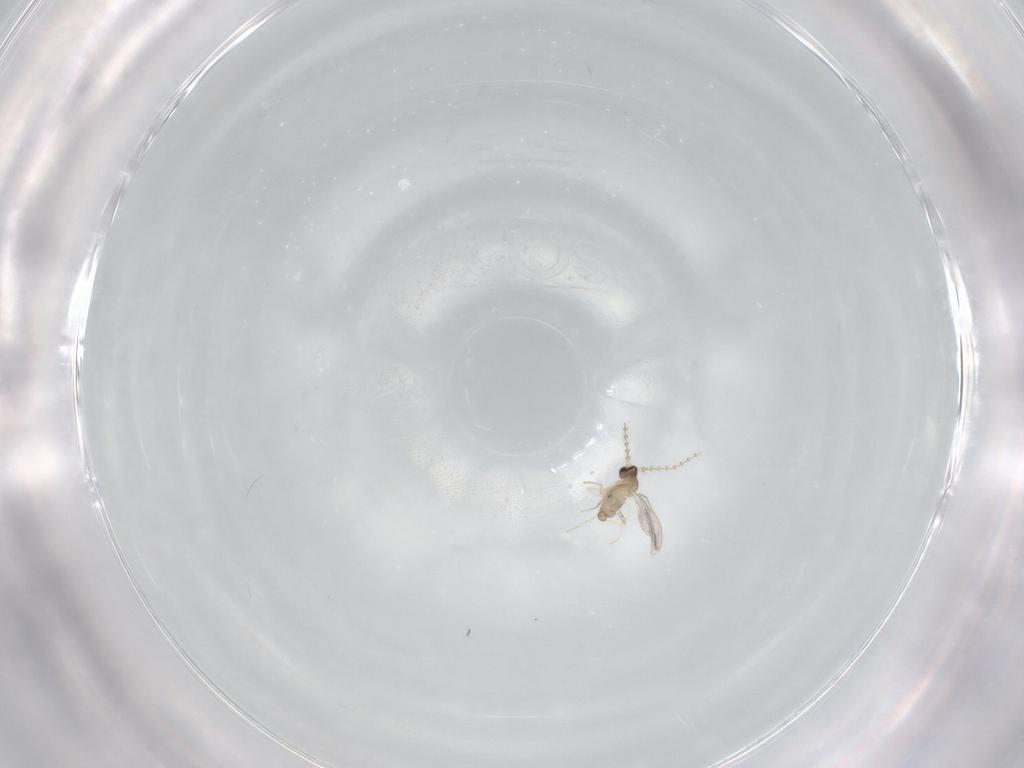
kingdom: Animalia
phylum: Arthropoda
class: Insecta
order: Diptera
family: Cecidomyiidae
